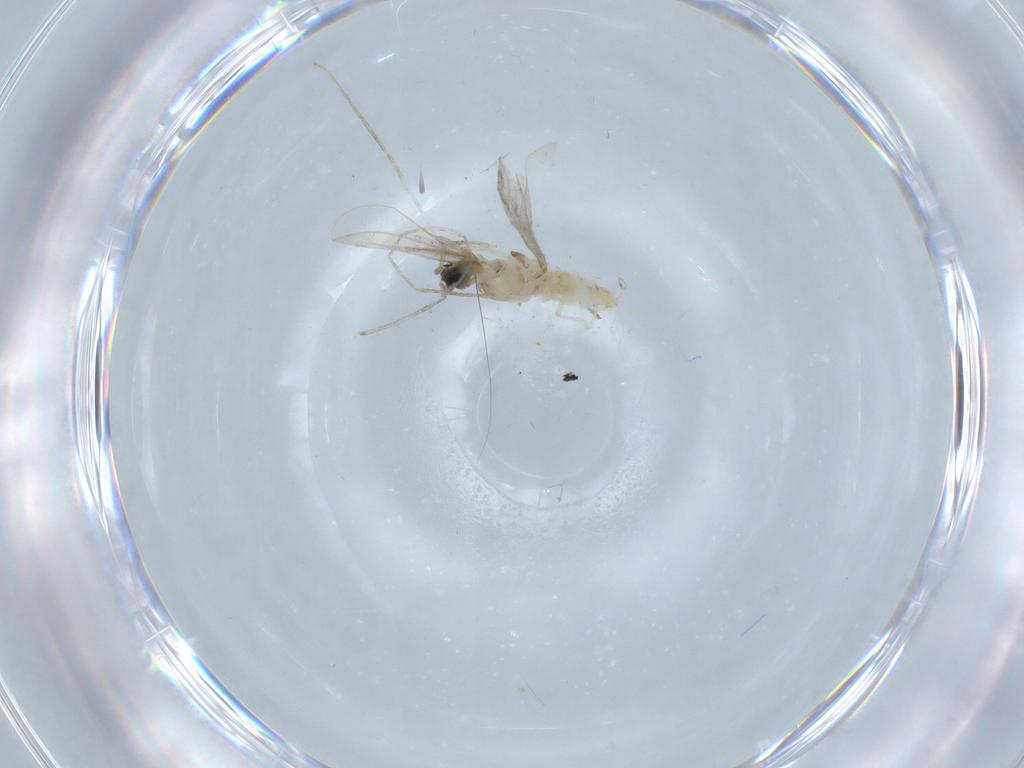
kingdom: Animalia
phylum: Arthropoda
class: Insecta
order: Diptera
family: Cecidomyiidae
